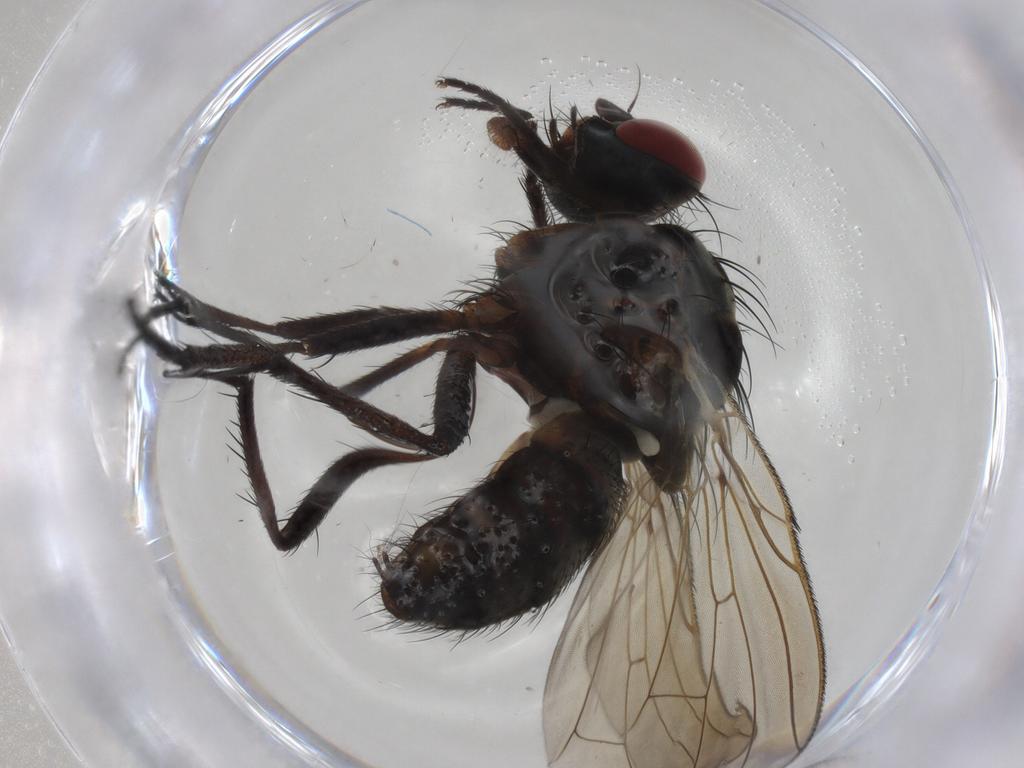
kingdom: Animalia
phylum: Arthropoda
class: Insecta
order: Diptera
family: Anthomyiidae
